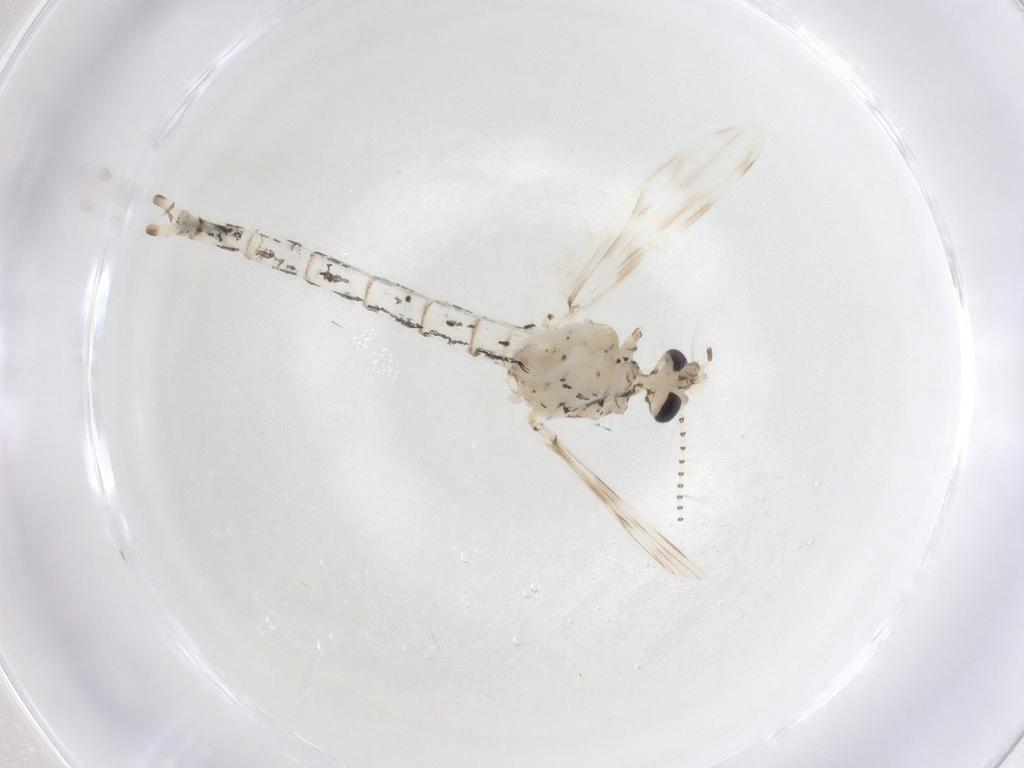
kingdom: Animalia
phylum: Arthropoda
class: Insecta
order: Diptera
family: Chaoboridae
